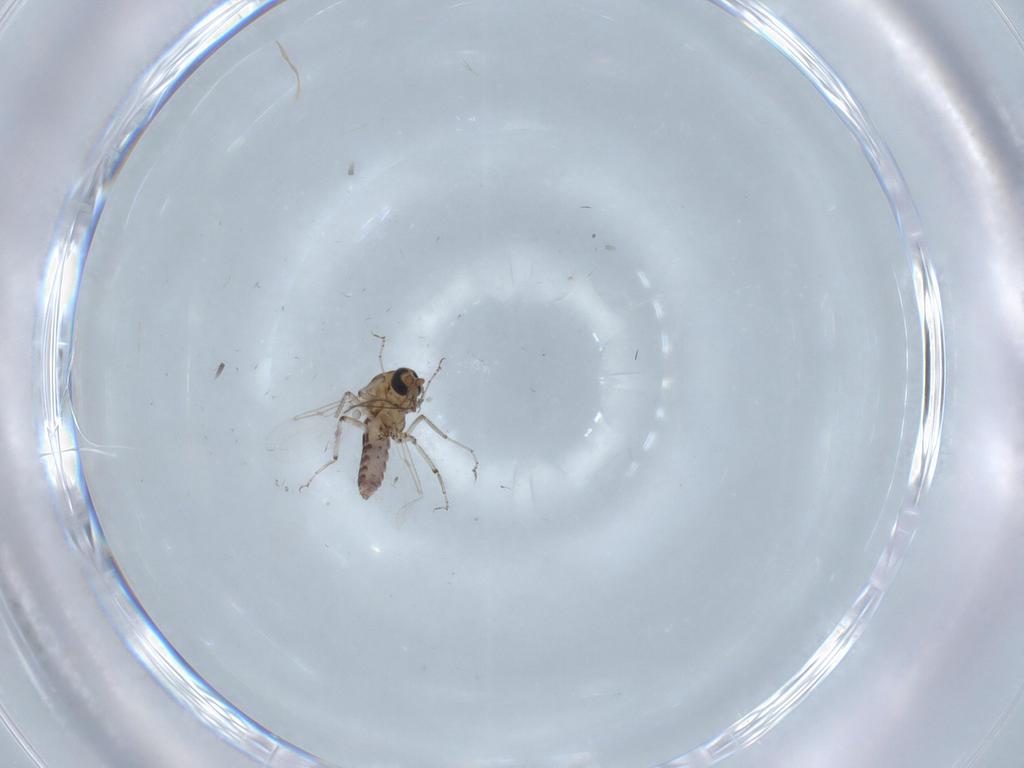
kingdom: Animalia
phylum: Arthropoda
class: Insecta
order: Diptera
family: Ceratopogonidae
